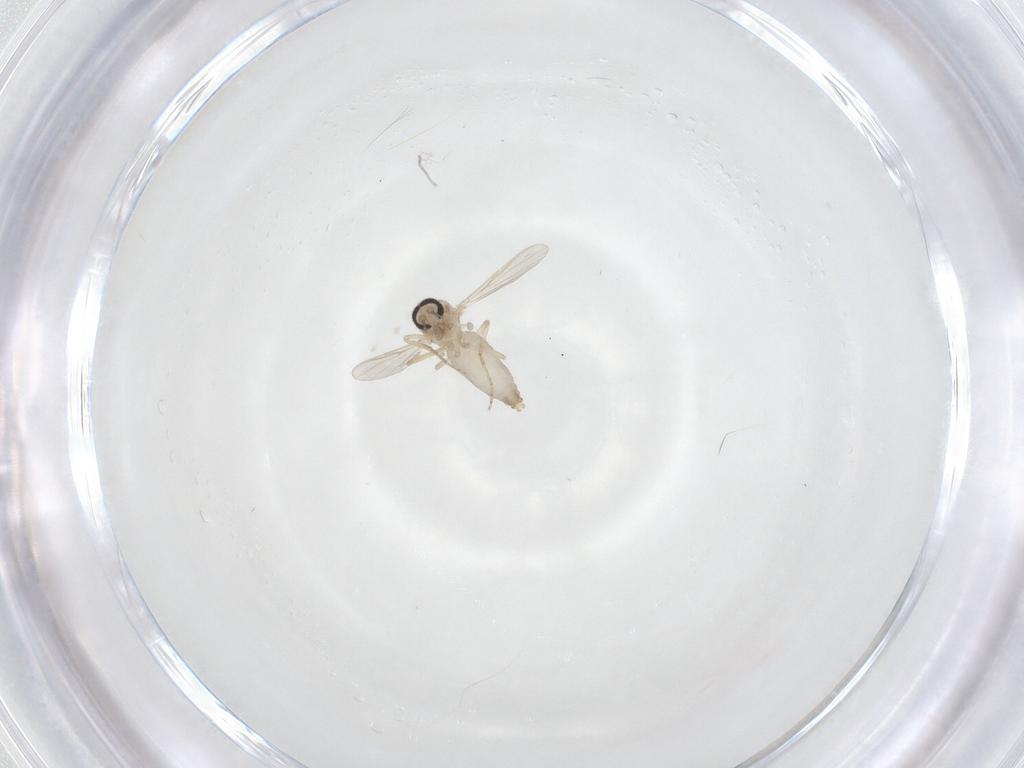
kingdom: Animalia
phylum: Arthropoda
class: Insecta
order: Diptera
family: Ceratopogonidae
